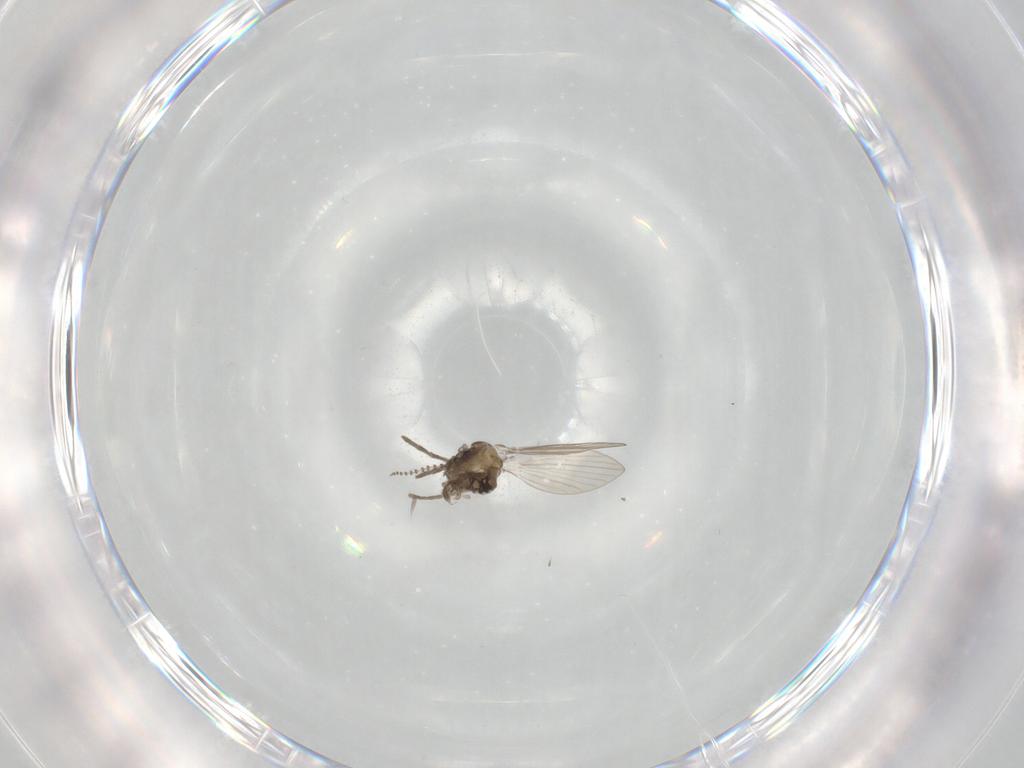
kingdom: Animalia
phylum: Arthropoda
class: Insecta
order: Diptera
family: Psychodidae
